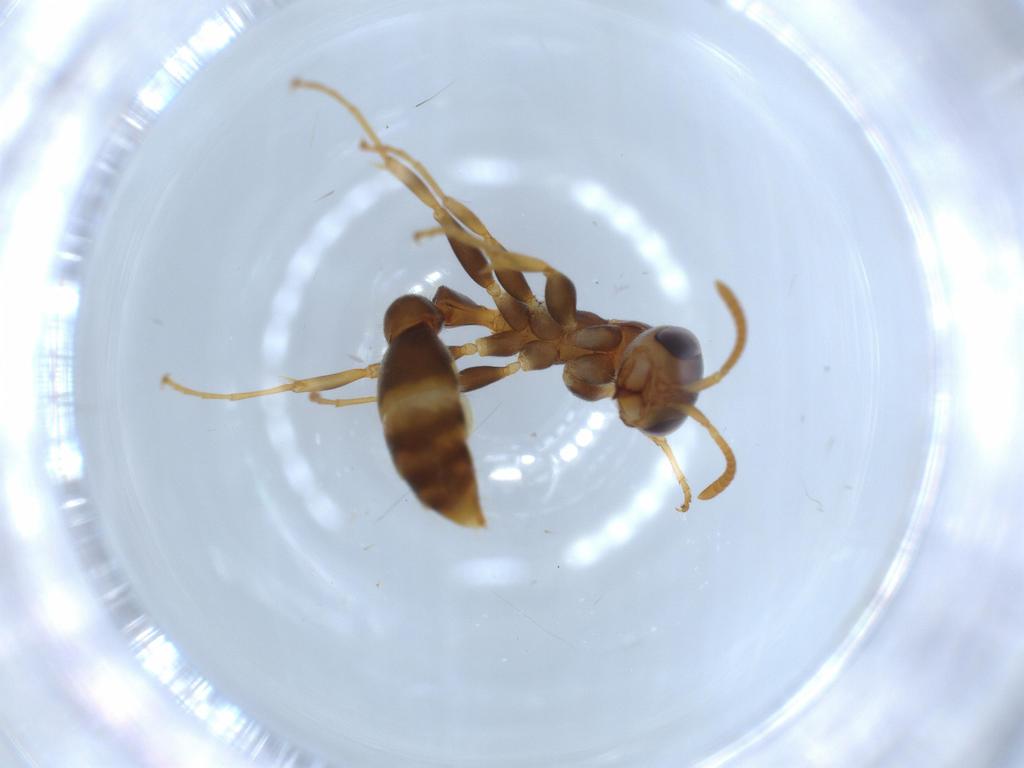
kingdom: Animalia
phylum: Arthropoda
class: Insecta
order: Hymenoptera
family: Formicidae
